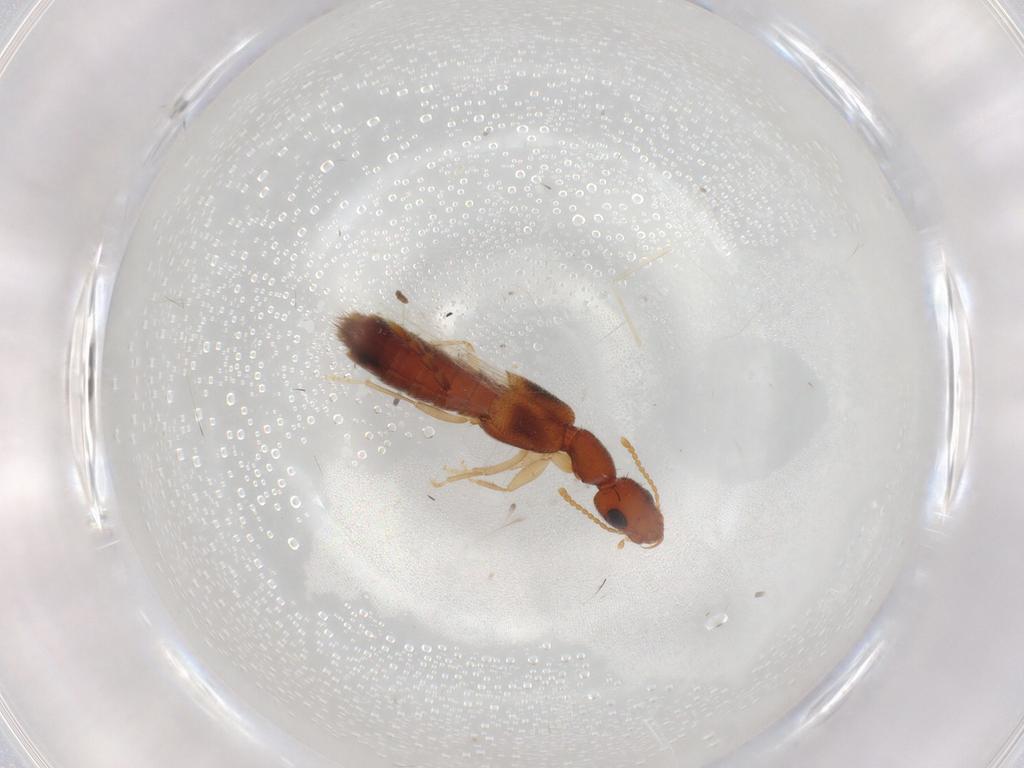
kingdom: Animalia
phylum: Arthropoda
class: Insecta
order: Coleoptera
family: Staphylinidae
